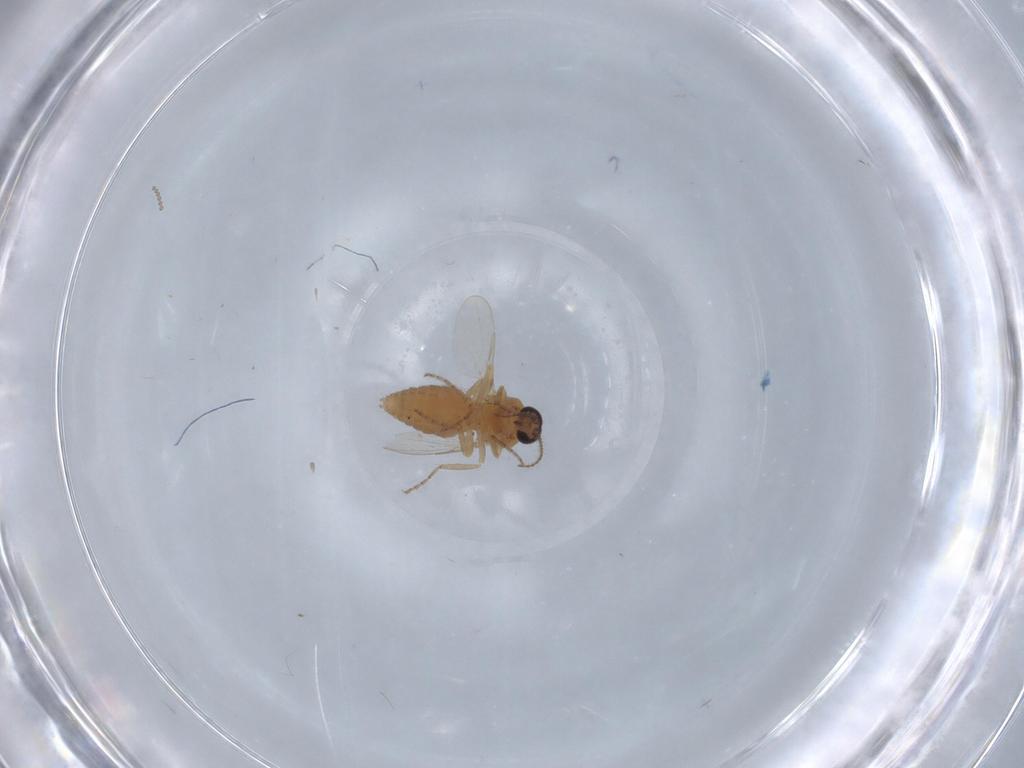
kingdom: Animalia
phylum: Arthropoda
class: Insecta
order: Diptera
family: Ceratopogonidae
